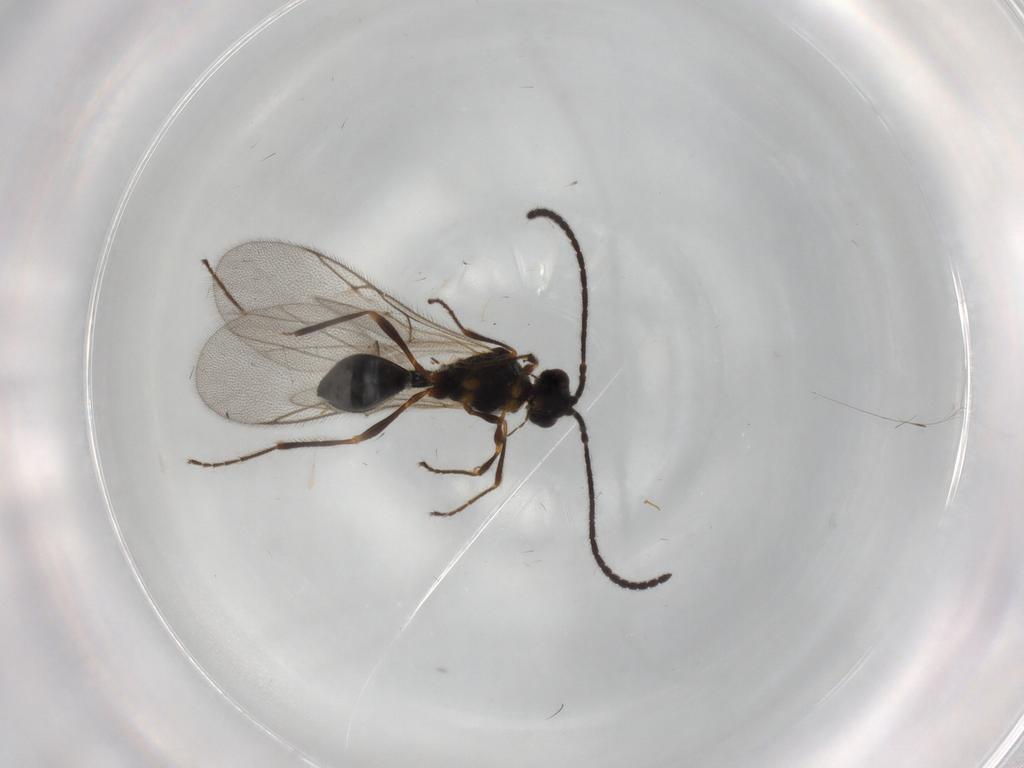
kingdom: Animalia
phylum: Arthropoda
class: Insecta
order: Hymenoptera
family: Diapriidae
